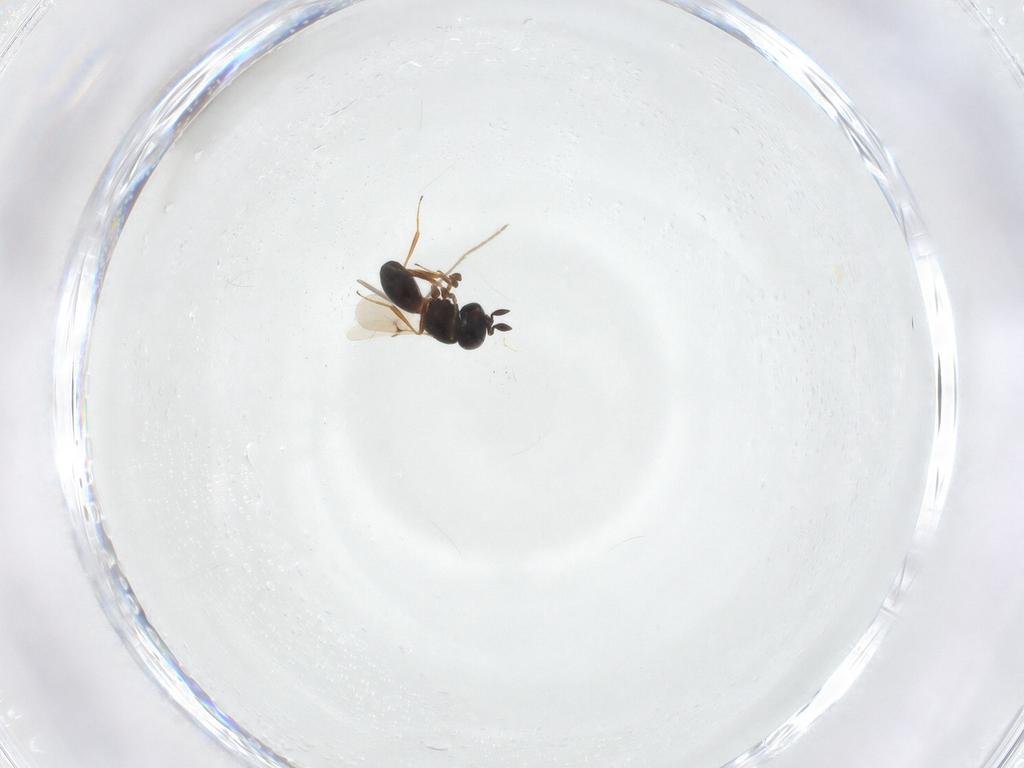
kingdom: Animalia
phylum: Arthropoda
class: Insecta
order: Hymenoptera
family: Scelionidae
